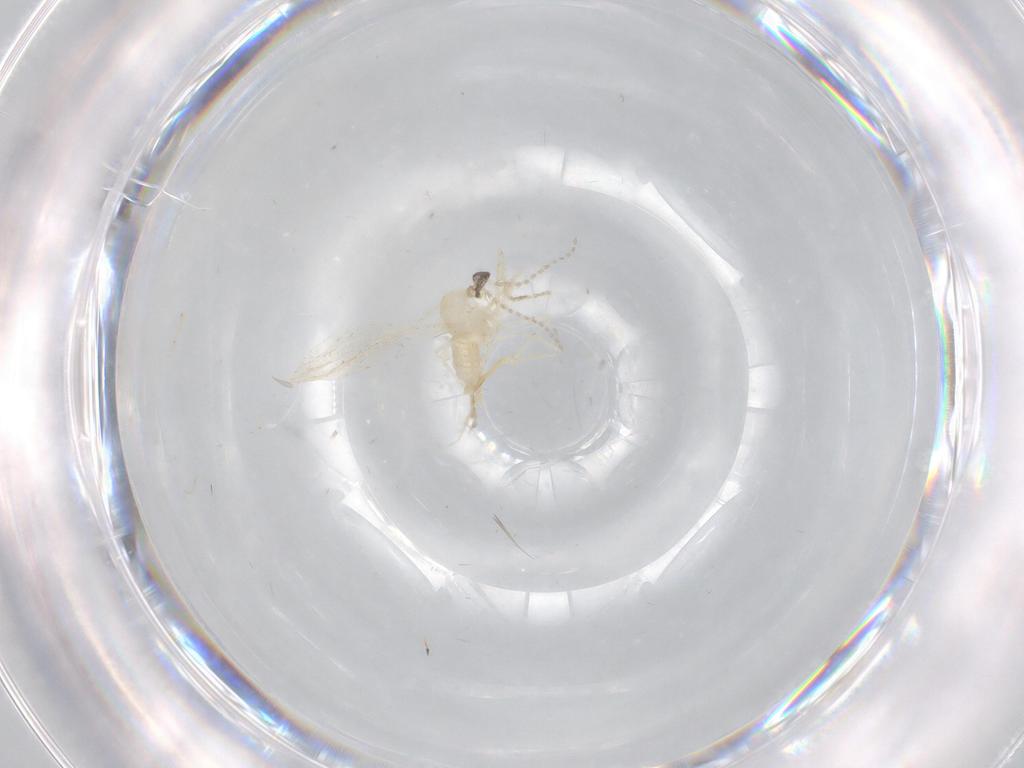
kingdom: Animalia
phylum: Arthropoda
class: Insecta
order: Diptera
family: Cecidomyiidae
